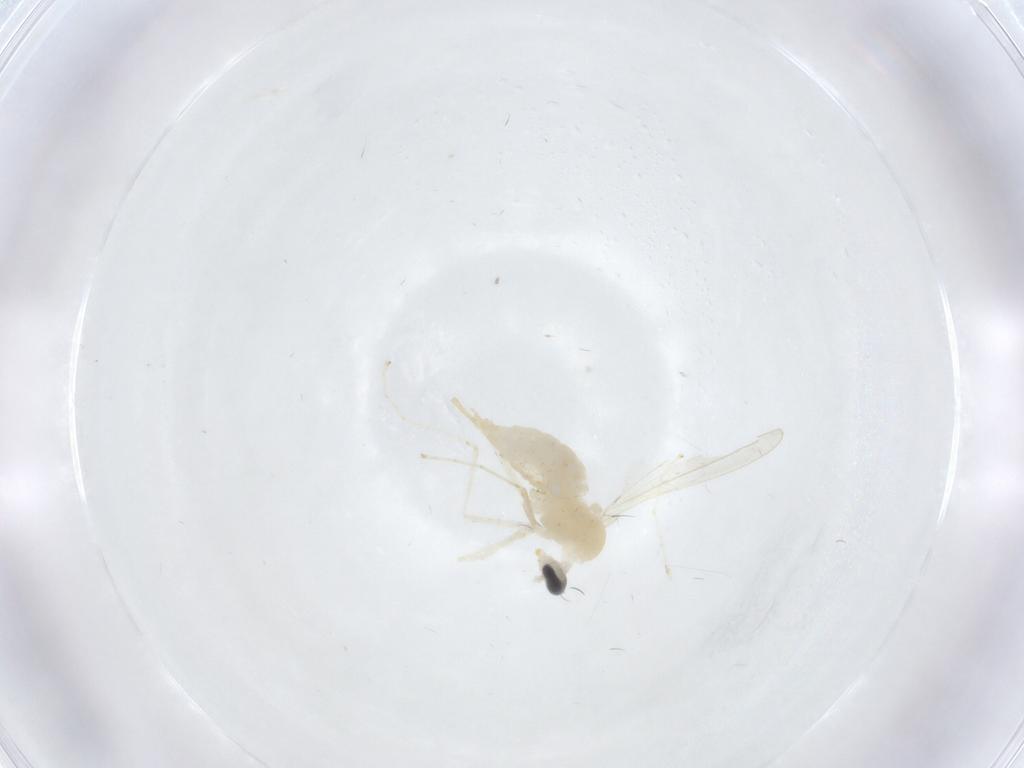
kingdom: Animalia
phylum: Arthropoda
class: Insecta
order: Diptera
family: Cecidomyiidae
